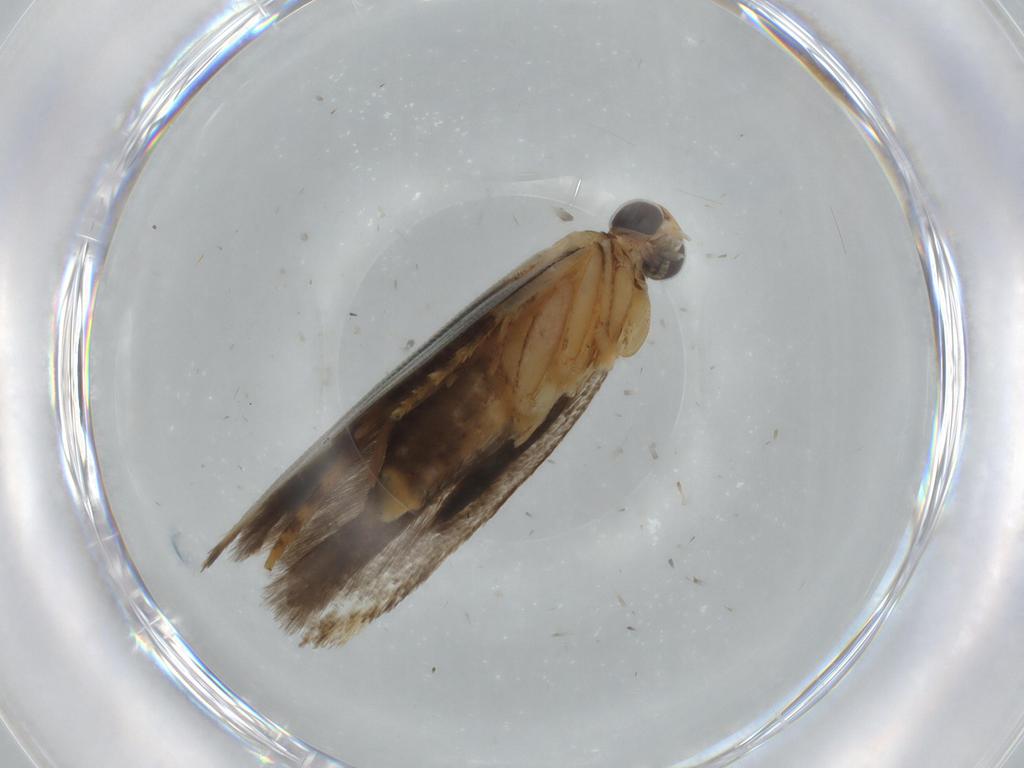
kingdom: Animalia
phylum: Arthropoda
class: Insecta
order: Lepidoptera
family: Gelechiidae
